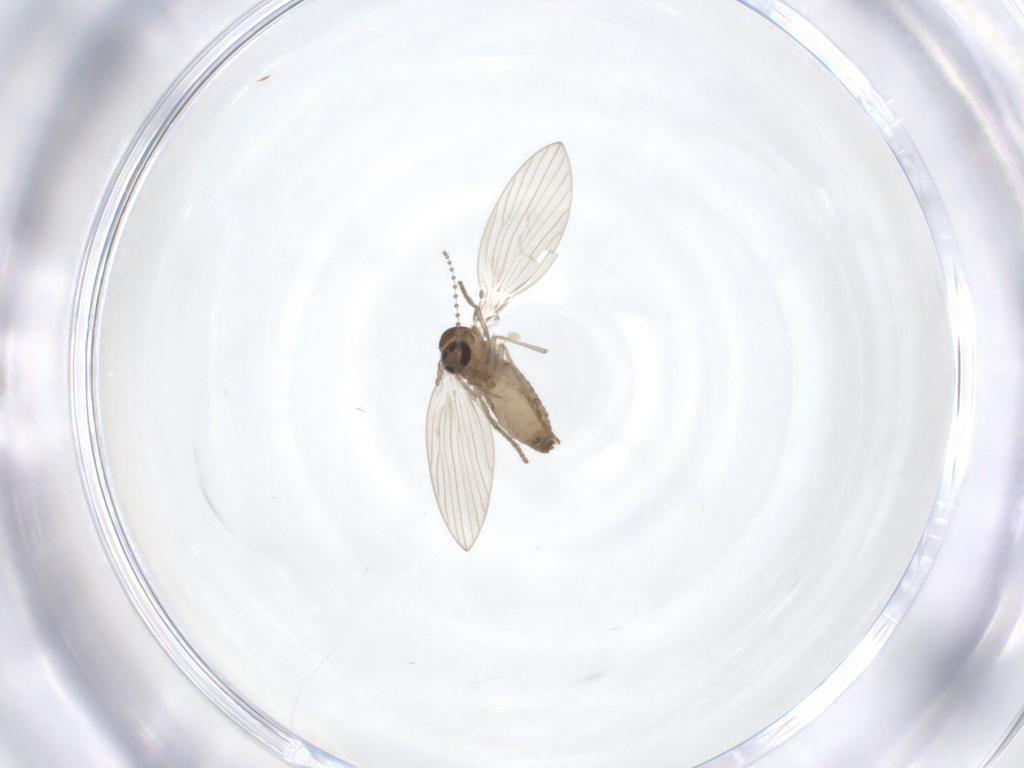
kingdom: Animalia
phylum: Arthropoda
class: Insecta
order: Diptera
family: Psychodidae
